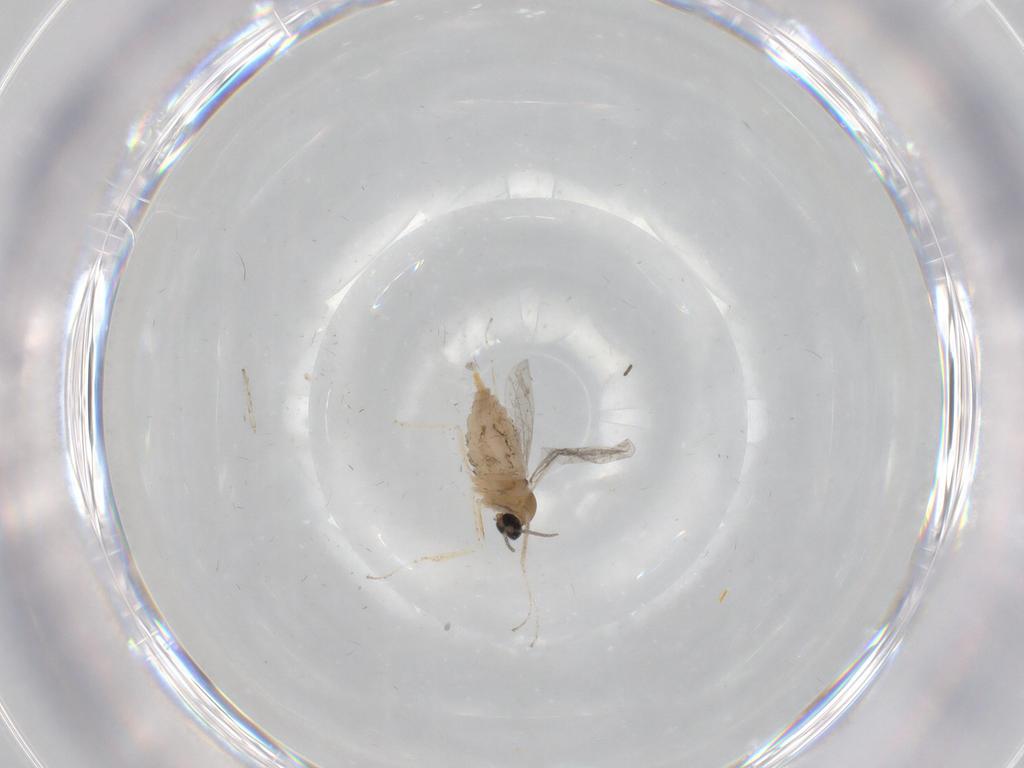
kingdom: Animalia
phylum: Arthropoda
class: Insecta
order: Diptera
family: Cecidomyiidae
